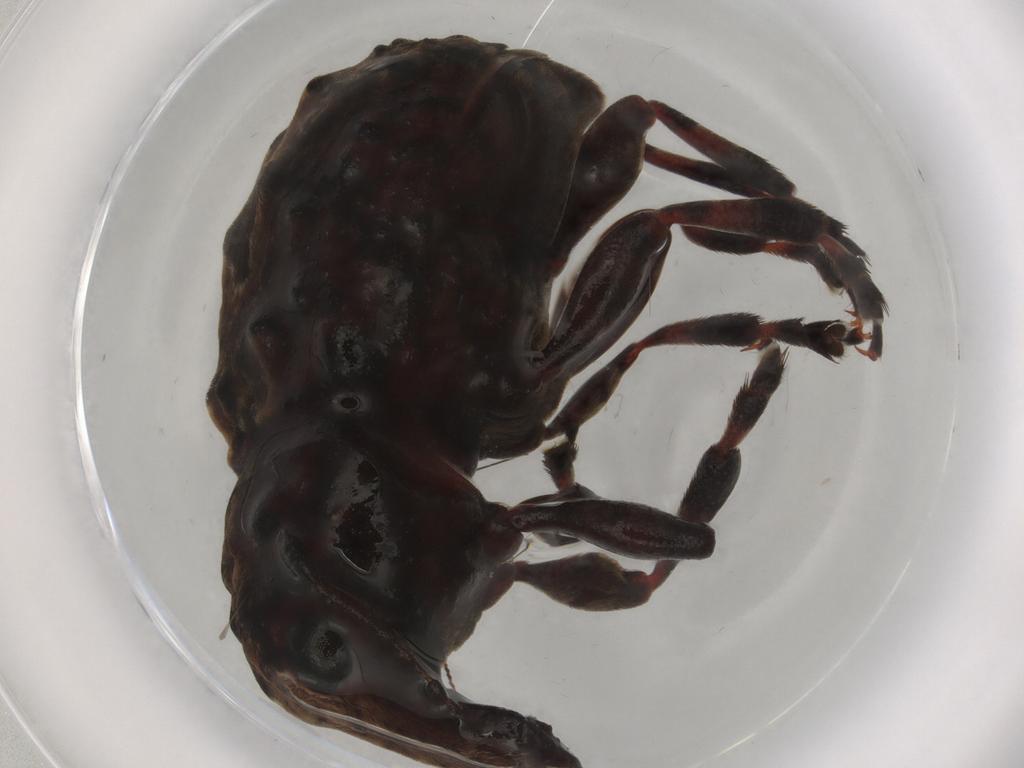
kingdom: Animalia
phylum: Arthropoda
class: Insecta
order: Coleoptera
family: Anthribidae
